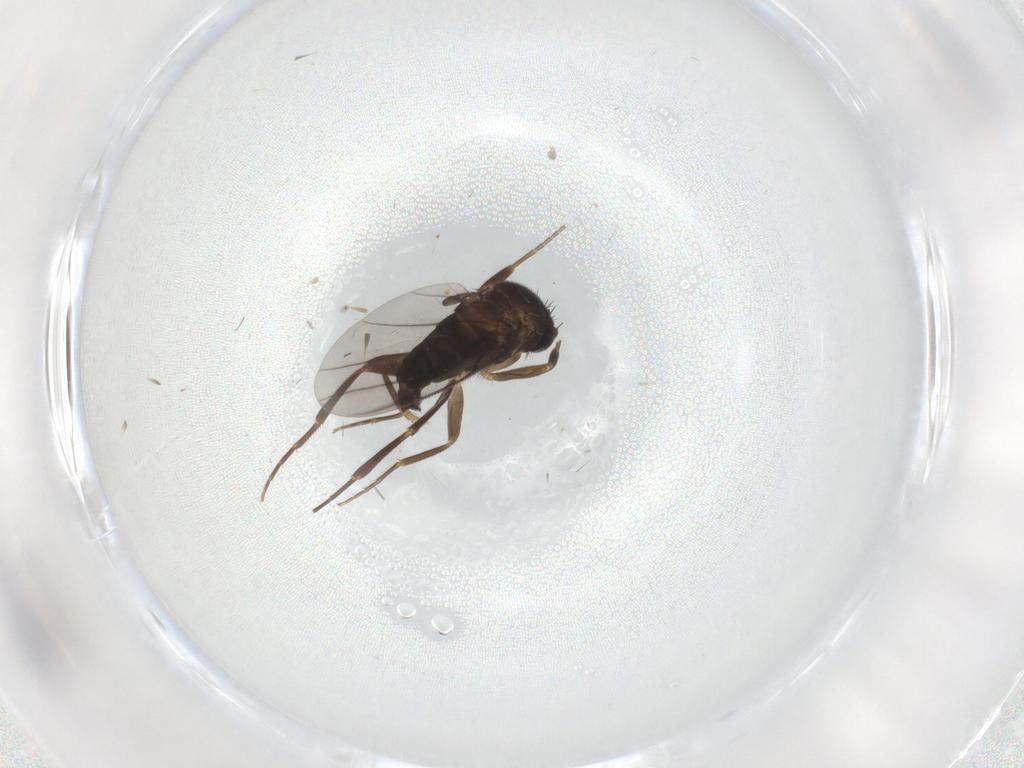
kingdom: Animalia
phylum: Arthropoda
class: Insecta
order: Diptera
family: Phoridae
